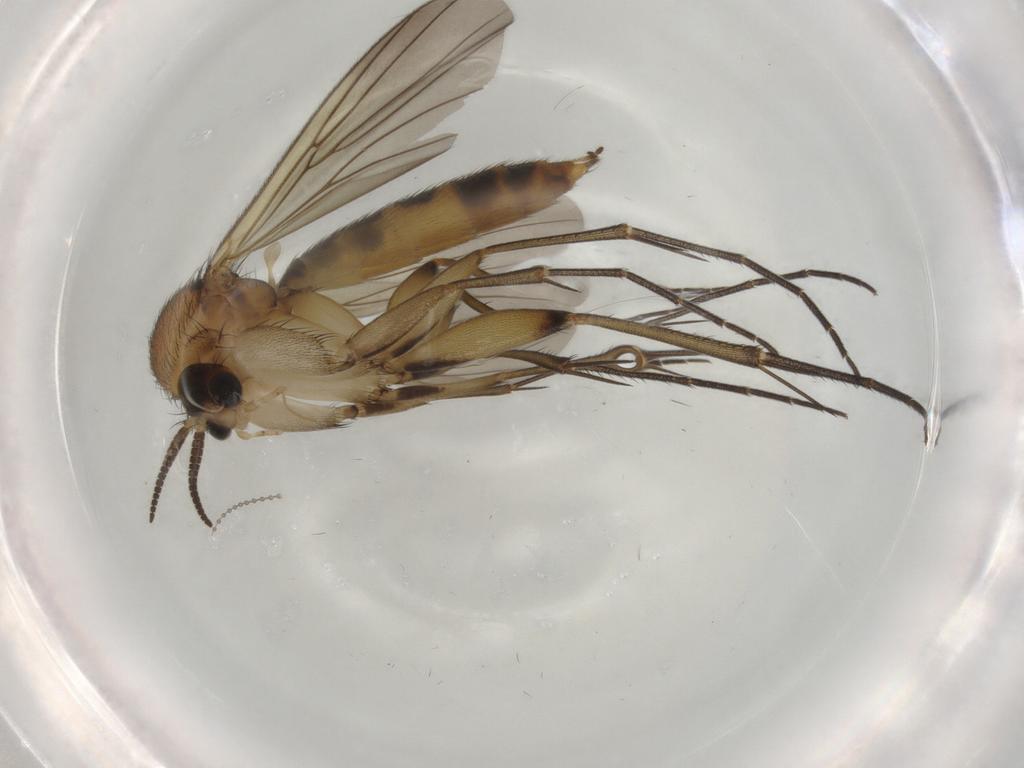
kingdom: Animalia
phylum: Arthropoda
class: Insecta
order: Diptera
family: Mycetophilidae
